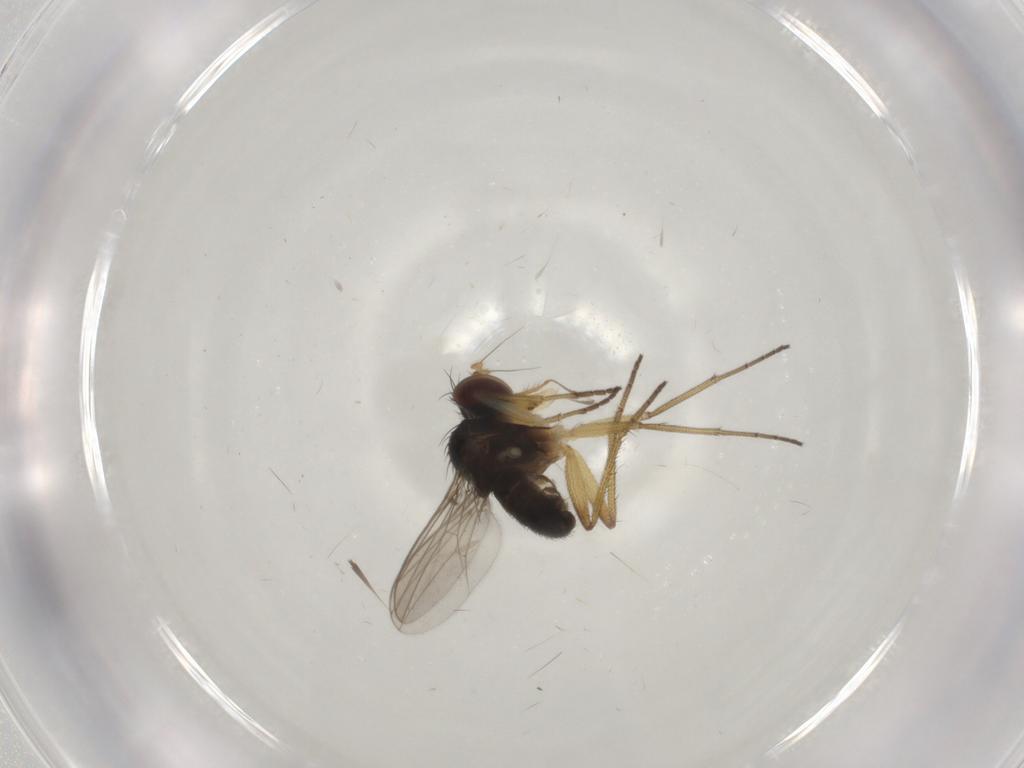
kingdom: Animalia
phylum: Arthropoda
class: Insecta
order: Diptera
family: Dolichopodidae
